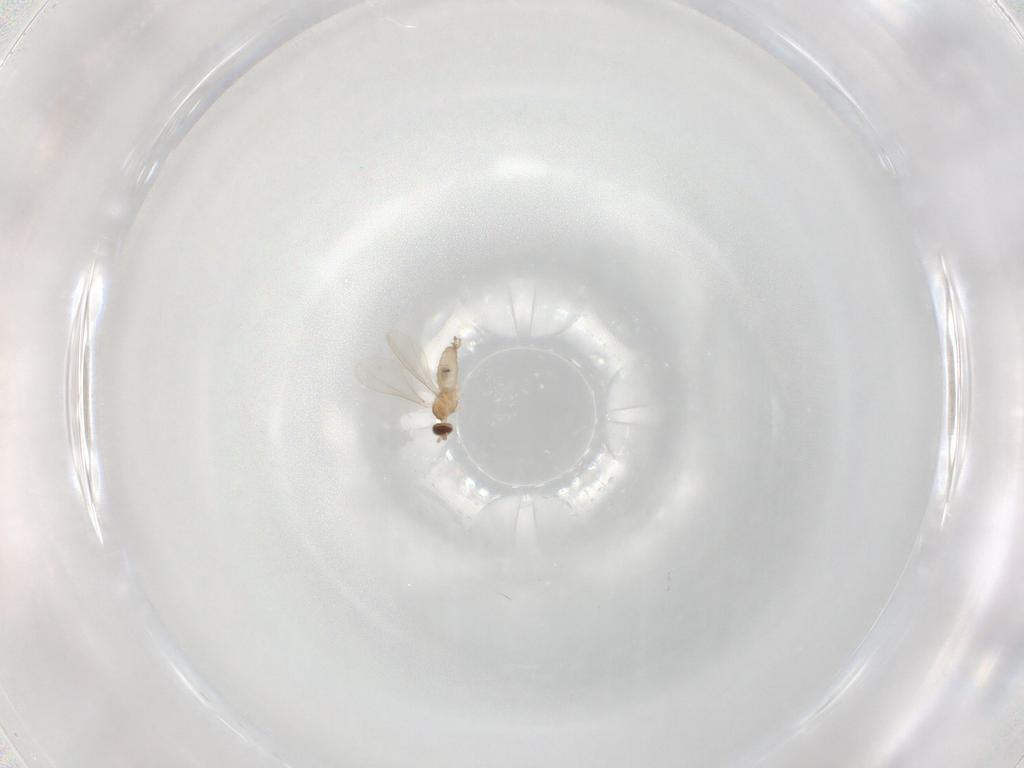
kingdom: Animalia
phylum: Arthropoda
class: Insecta
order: Diptera
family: Cecidomyiidae
